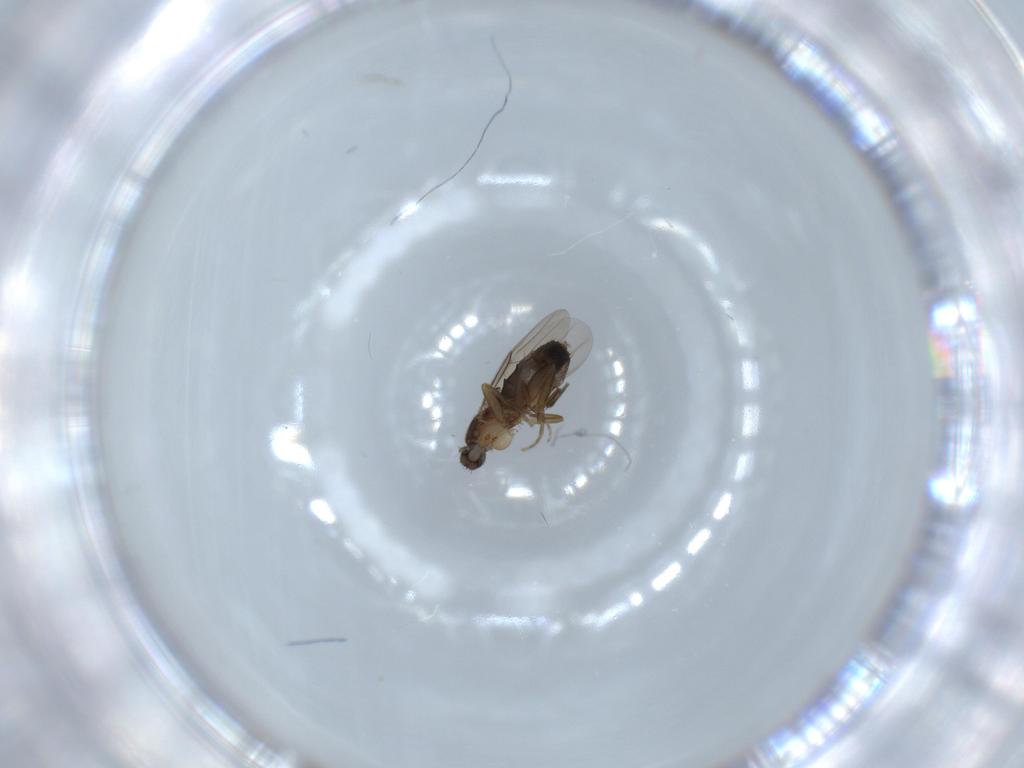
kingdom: Animalia
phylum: Arthropoda
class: Insecta
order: Diptera
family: Phoridae
